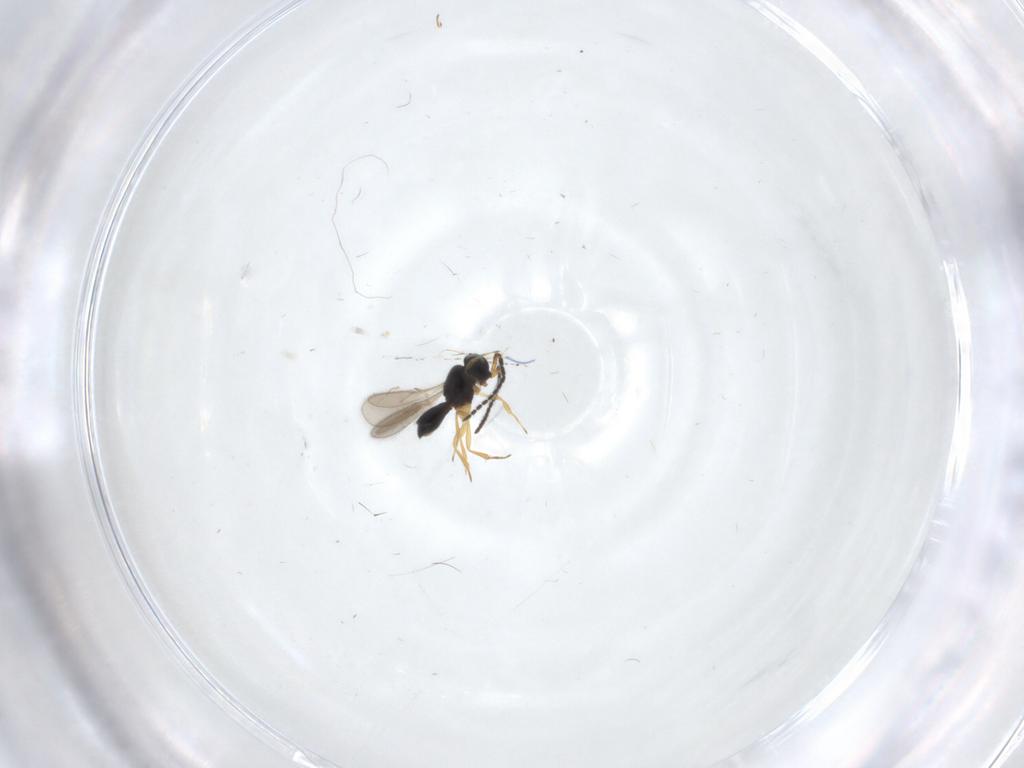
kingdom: Animalia
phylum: Arthropoda
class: Insecta
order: Hymenoptera
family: Scelionidae
